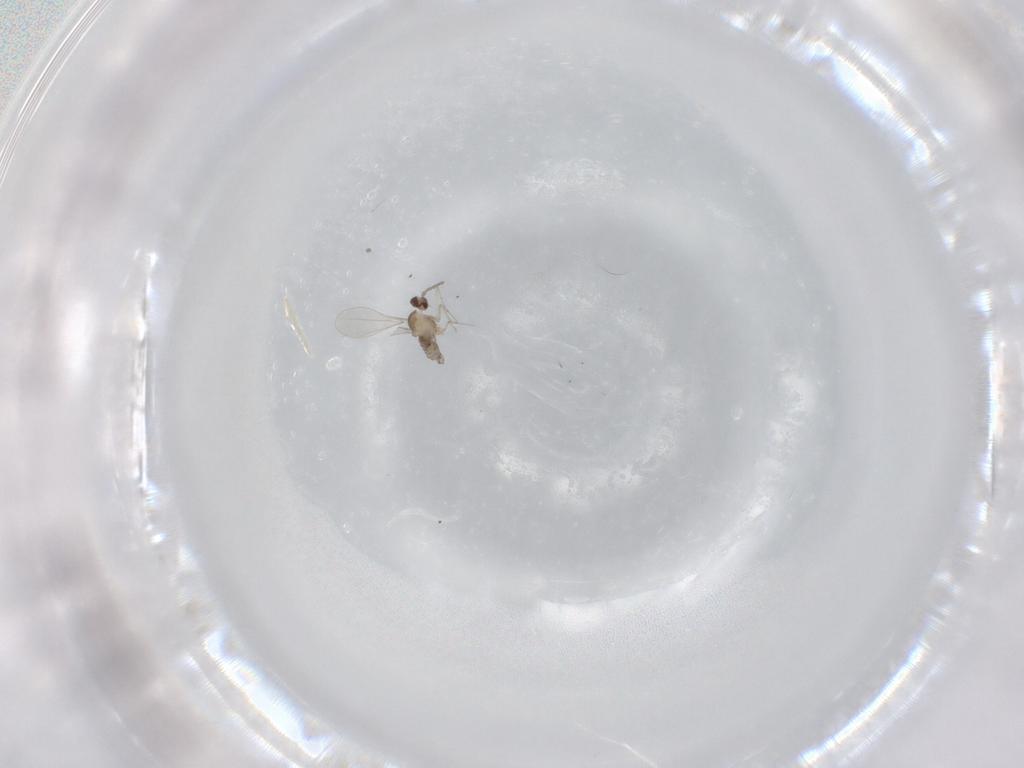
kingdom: Animalia
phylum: Arthropoda
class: Insecta
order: Diptera
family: Cecidomyiidae
